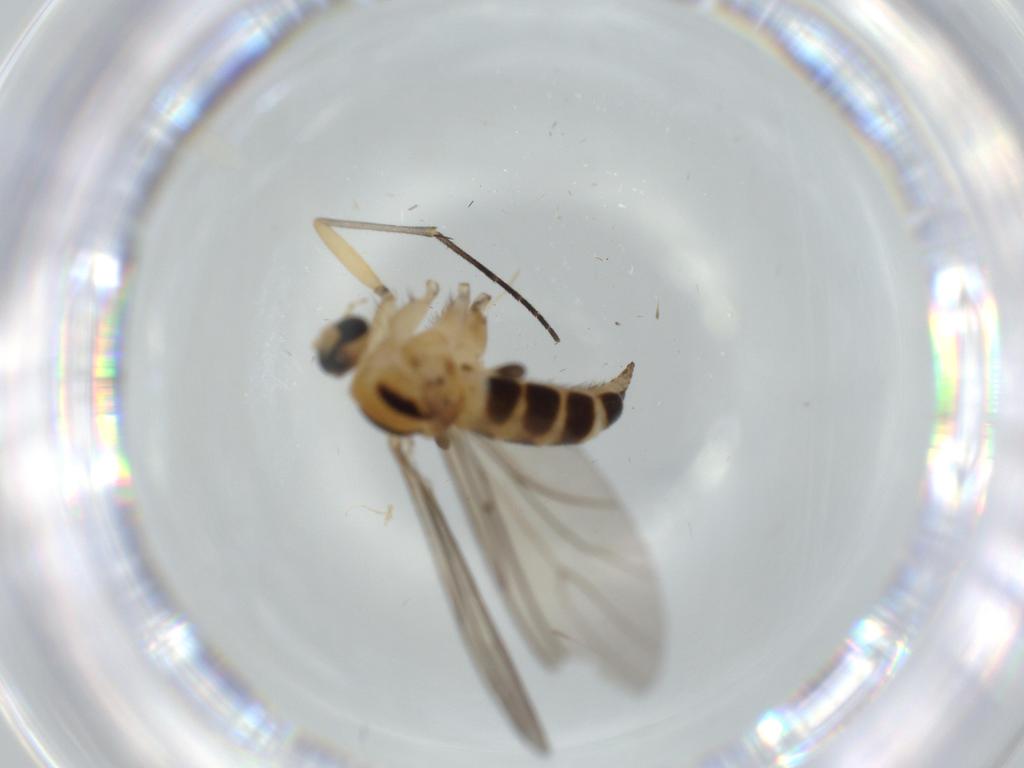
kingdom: Animalia
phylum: Arthropoda
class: Insecta
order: Diptera
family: Sciaridae
